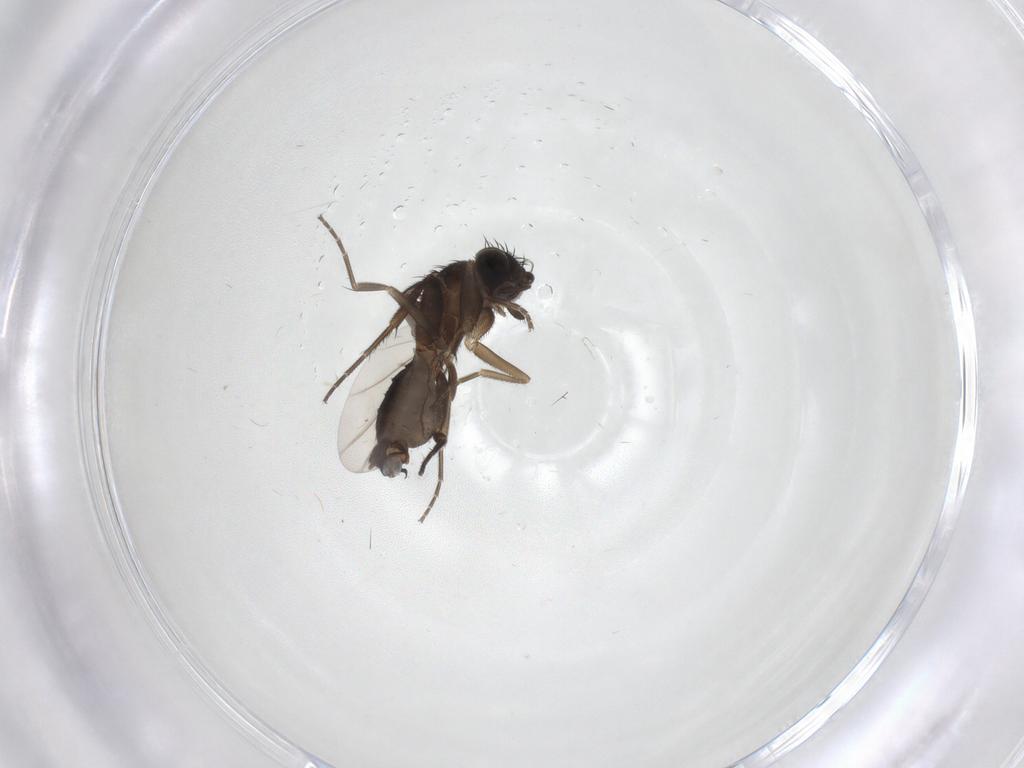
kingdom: Animalia
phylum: Arthropoda
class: Insecta
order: Diptera
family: Phoridae
